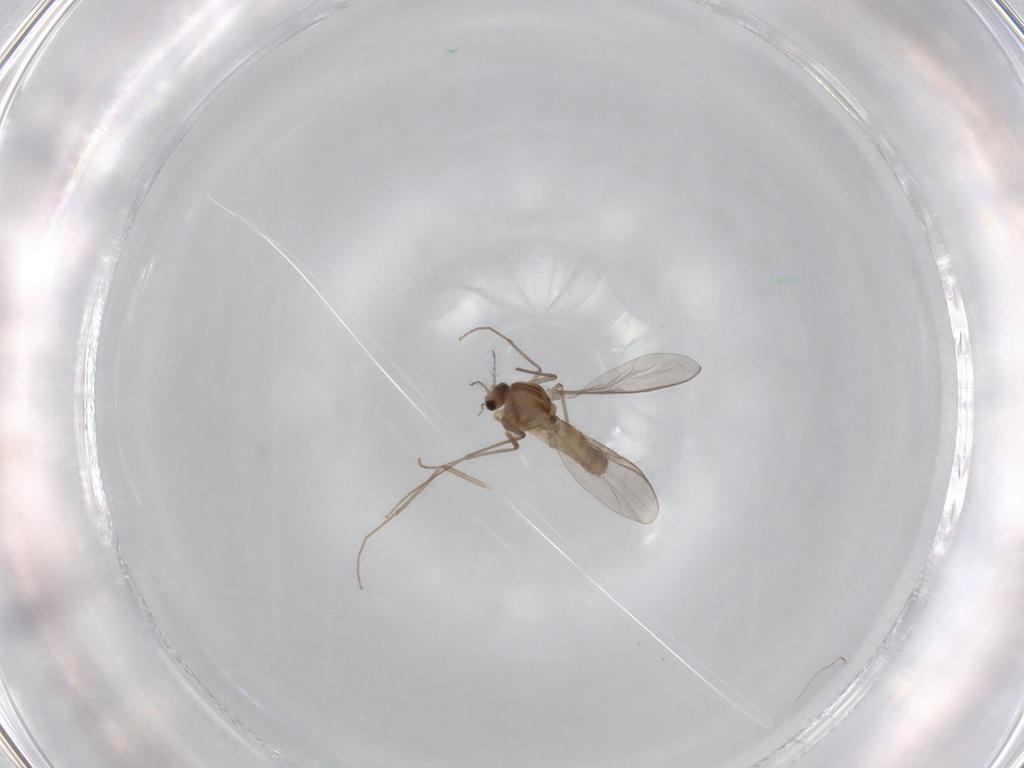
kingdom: Animalia
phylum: Arthropoda
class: Insecta
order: Diptera
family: Chironomidae
